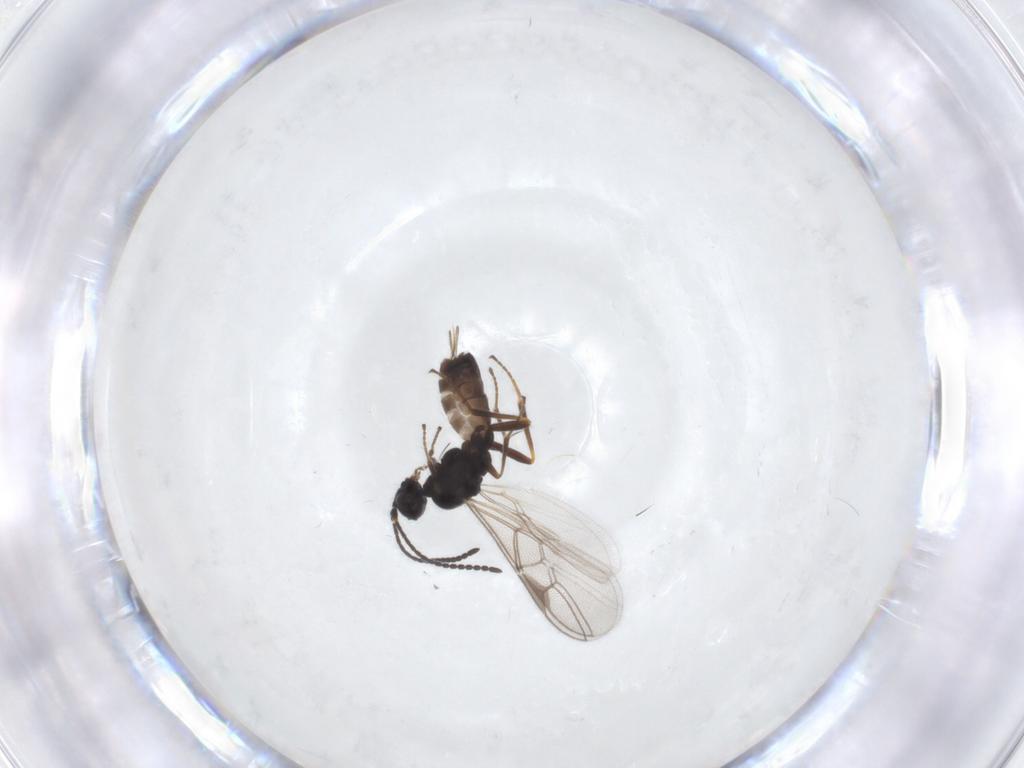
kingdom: Animalia
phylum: Arthropoda
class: Insecta
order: Hymenoptera
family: Braconidae
